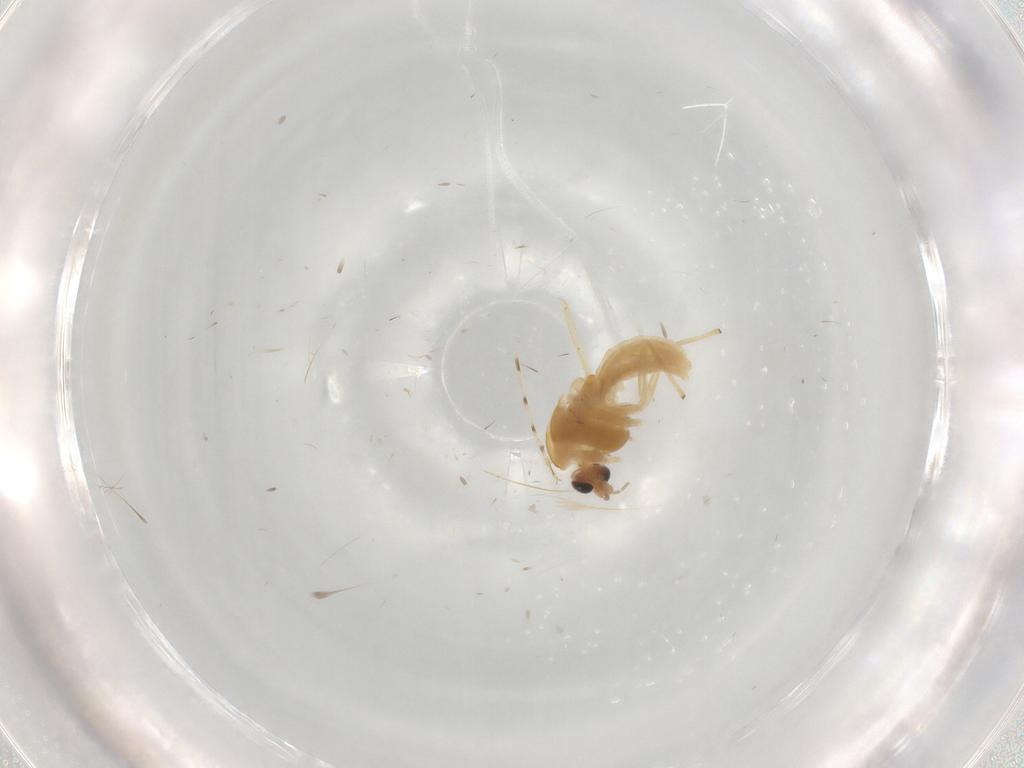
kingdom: Animalia
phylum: Arthropoda
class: Insecta
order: Diptera
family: Chironomidae
